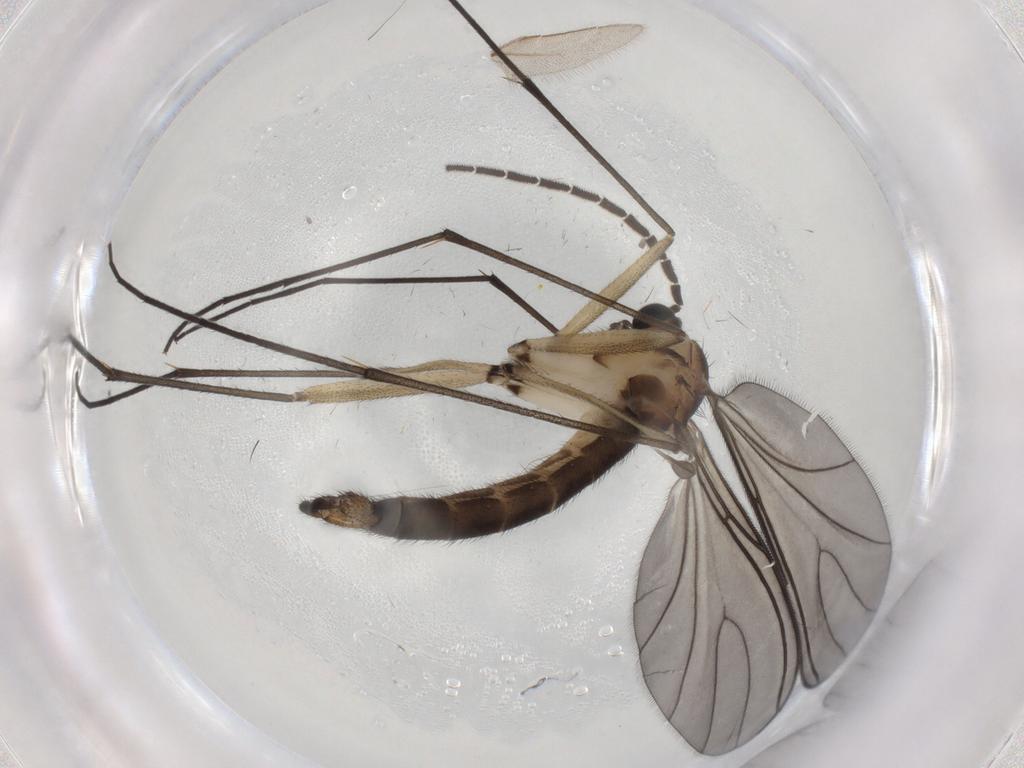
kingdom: Animalia
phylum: Arthropoda
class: Insecta
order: Diptera
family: Sciaridae
